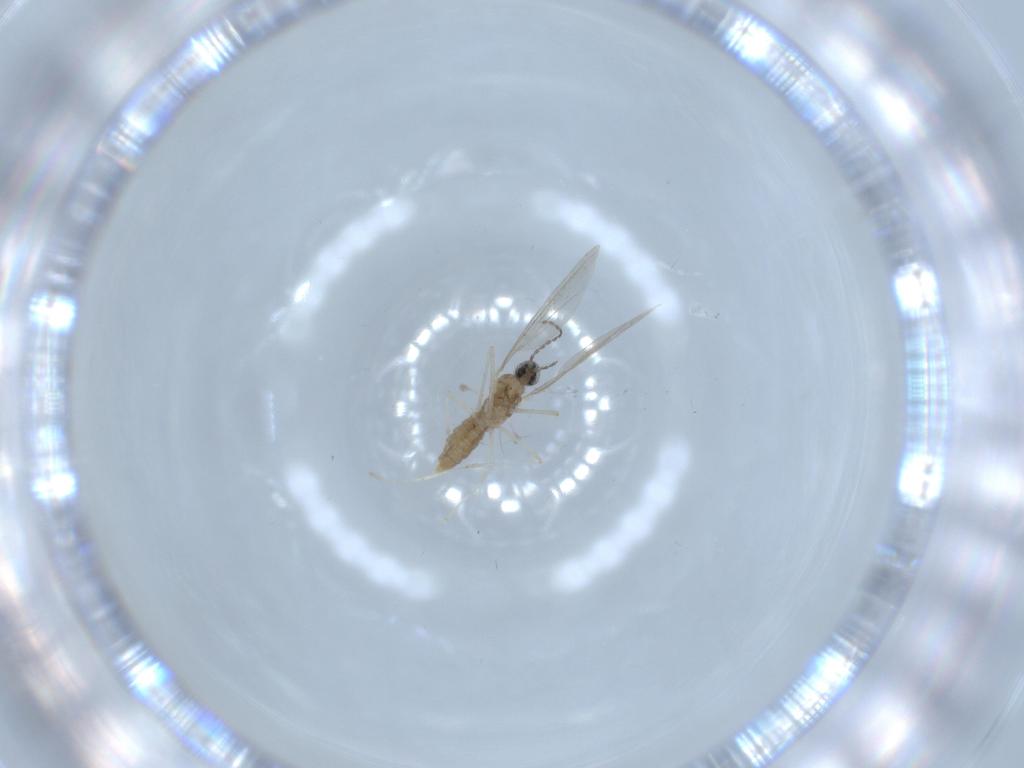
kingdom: Animalia
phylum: Arthropoda
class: Insecta
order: Diptera
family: Cecidomyiidae
